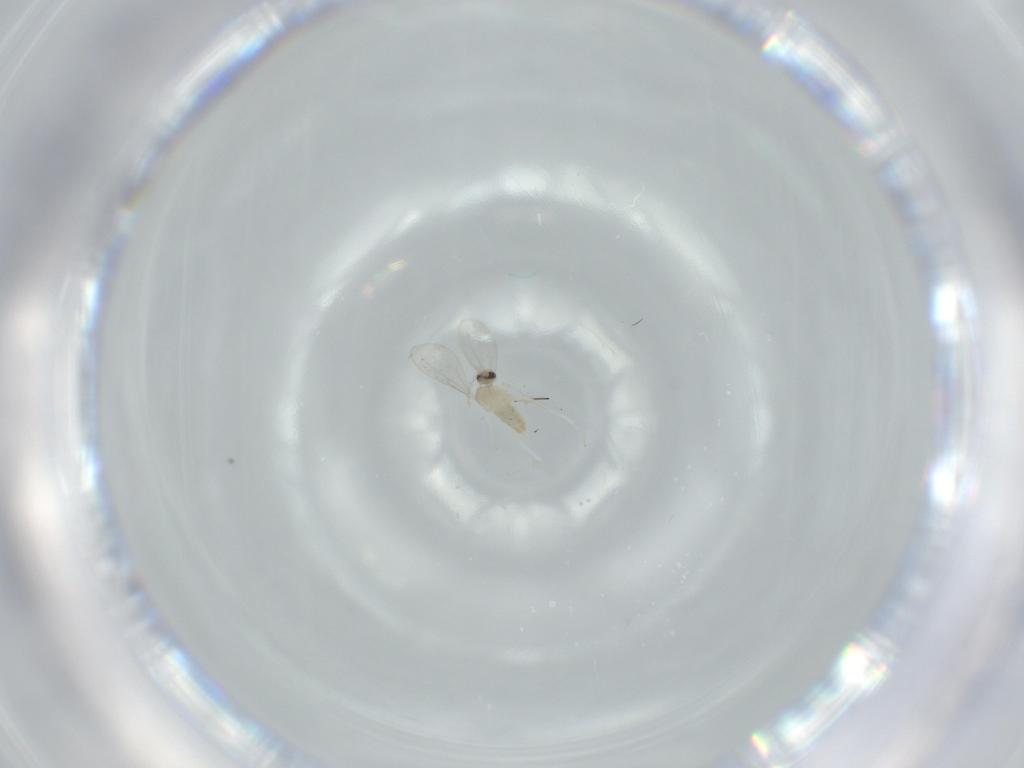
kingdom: Animalia
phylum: Arthropoda
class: Insecta
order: Diptera
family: Cecidomyiidae
